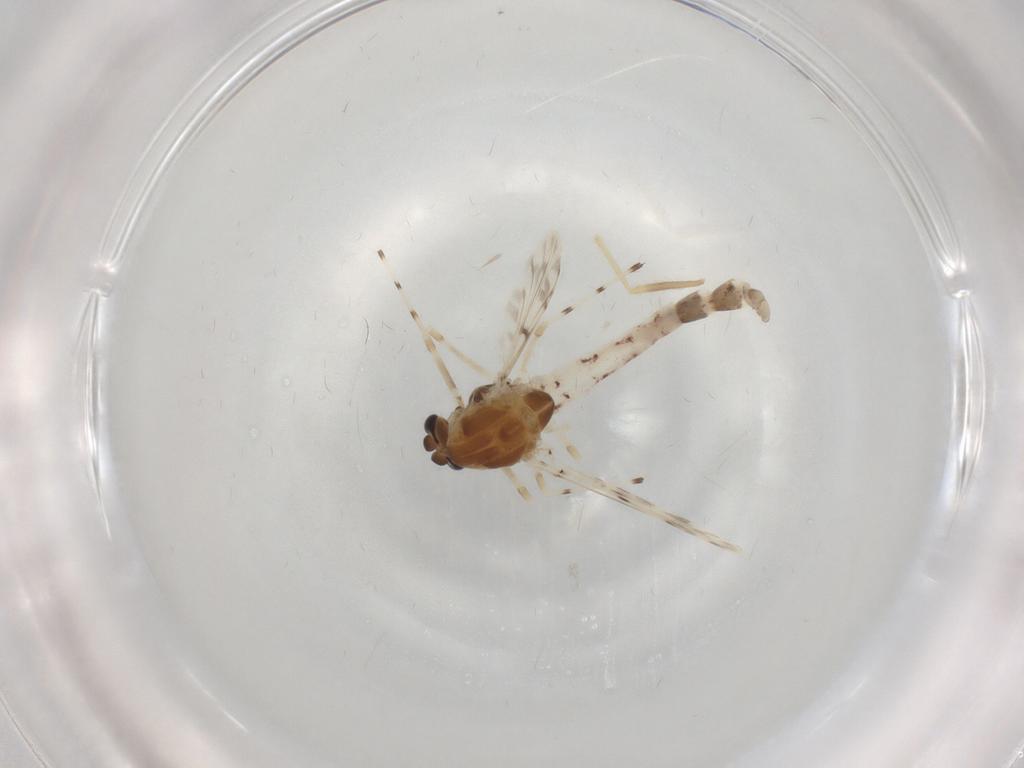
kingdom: Animalia
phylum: Arthropoda
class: Insecta
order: Diptera
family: Chironomidae
